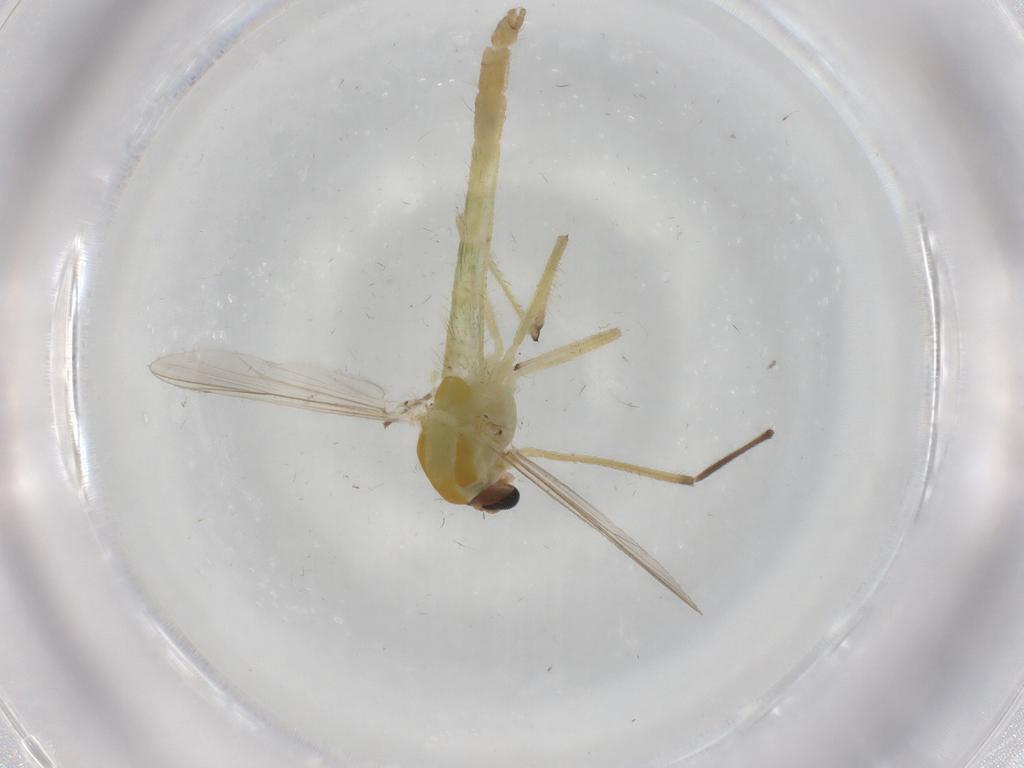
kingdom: Animalia
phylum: Arthropoda
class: Insecta
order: Diptera
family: Chironomidae
